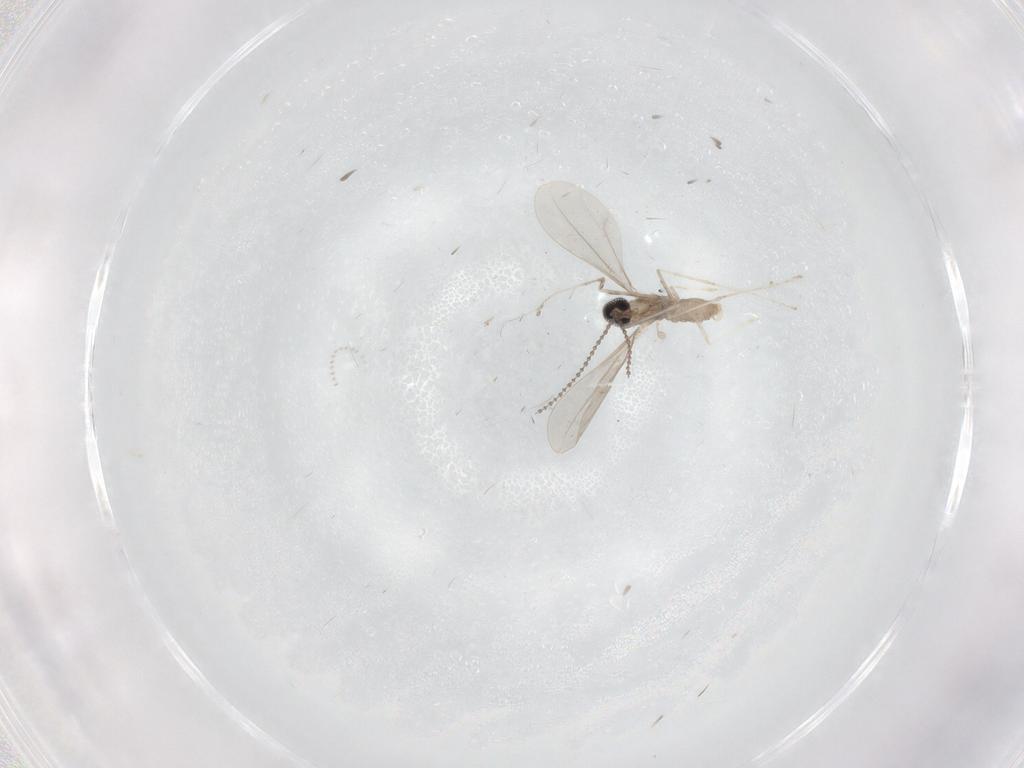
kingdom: Animalia
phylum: Arthropoda
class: Insecta
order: Diptera
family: Cecidomyiidae
